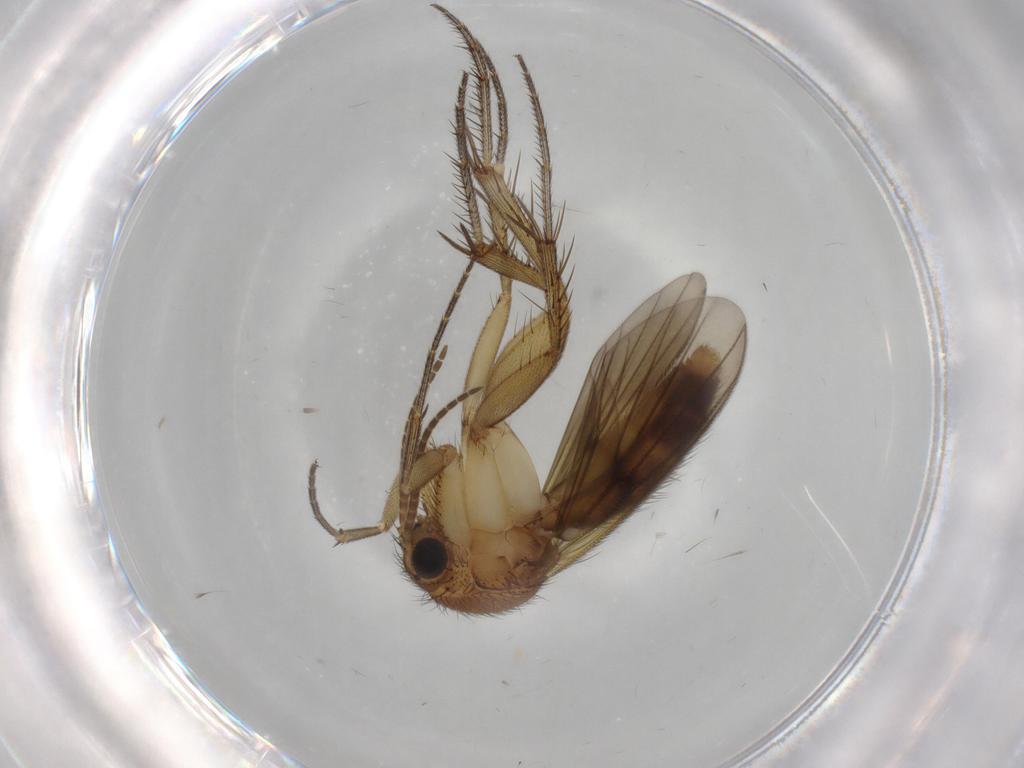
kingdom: Animalia
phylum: Arthropoda
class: Insecta
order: Diptera
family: Chironomidae
